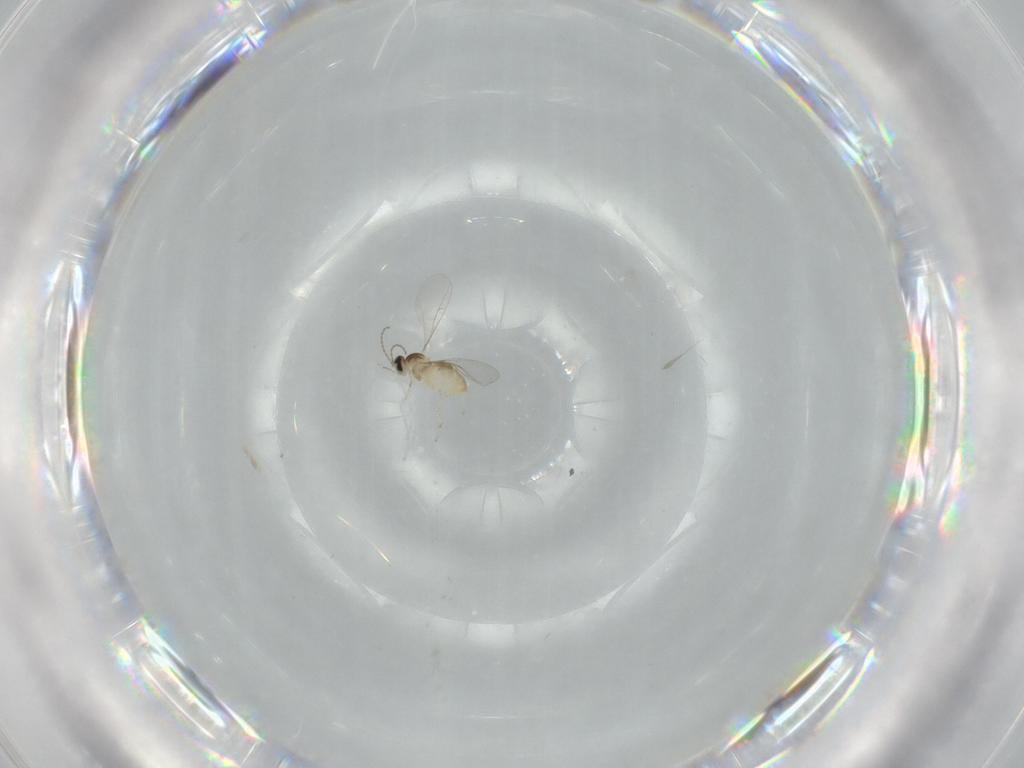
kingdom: Animalia
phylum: Arthropoda
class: Insecta
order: Diptera
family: Cecidomyiidae
